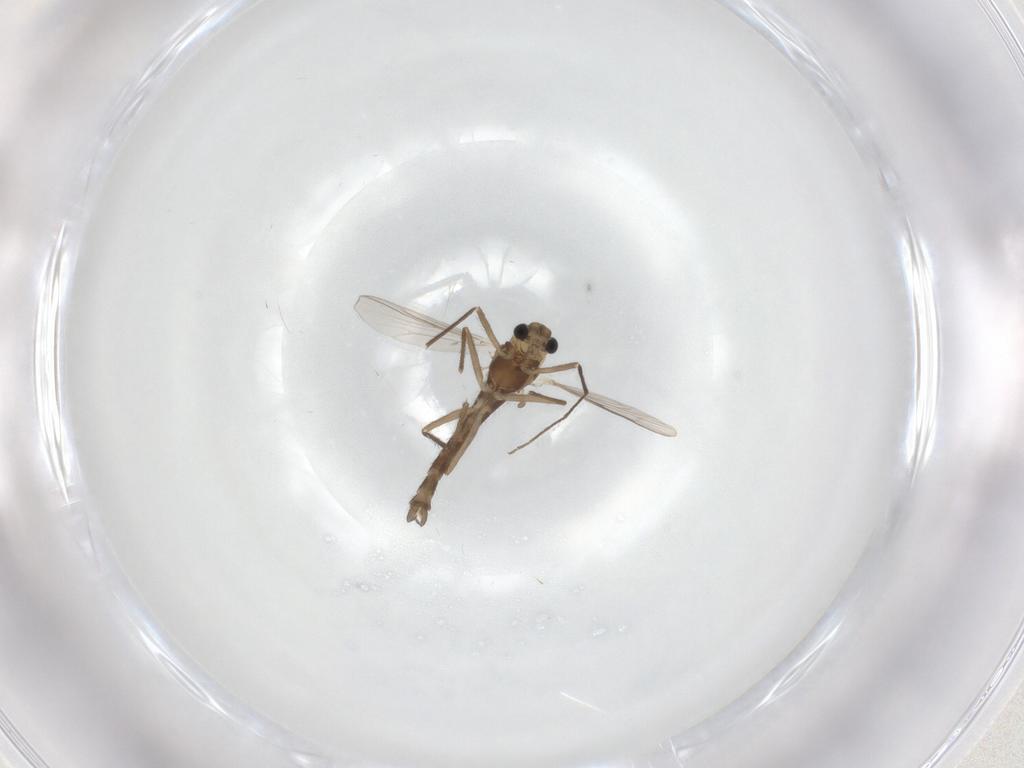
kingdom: Animalia
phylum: Arthropoda
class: Insecta
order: Diptera
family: Chironomidae
